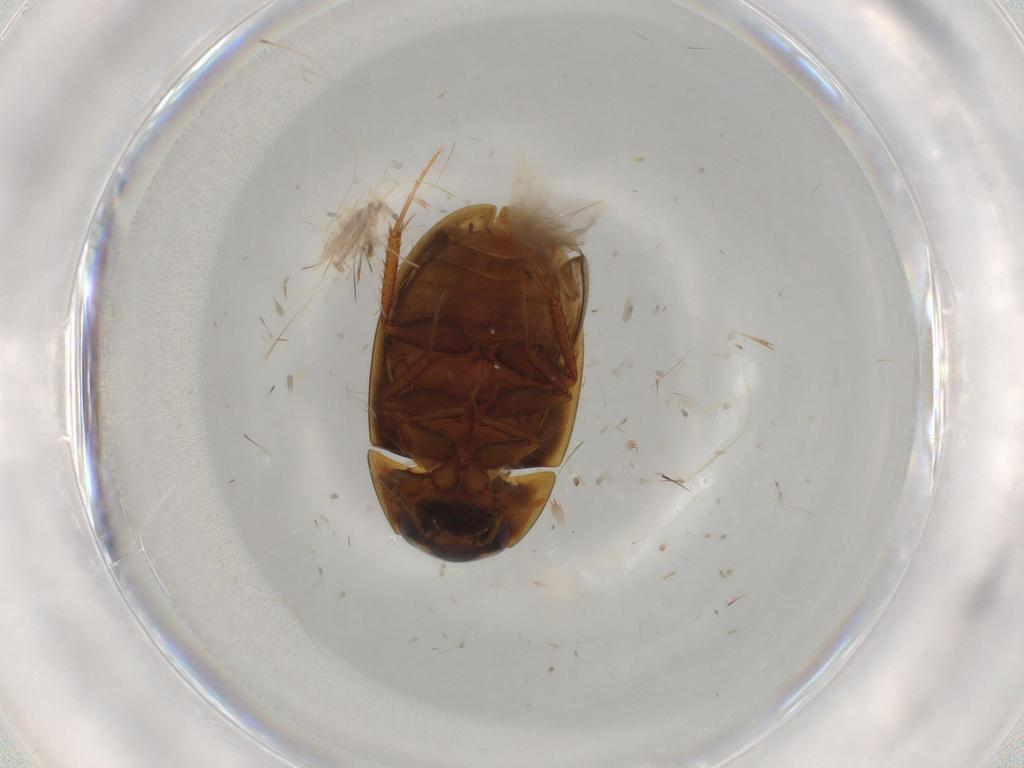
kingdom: Animalia
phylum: Arthropoda
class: Insecta
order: Coleoptera
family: Nitidulidae
